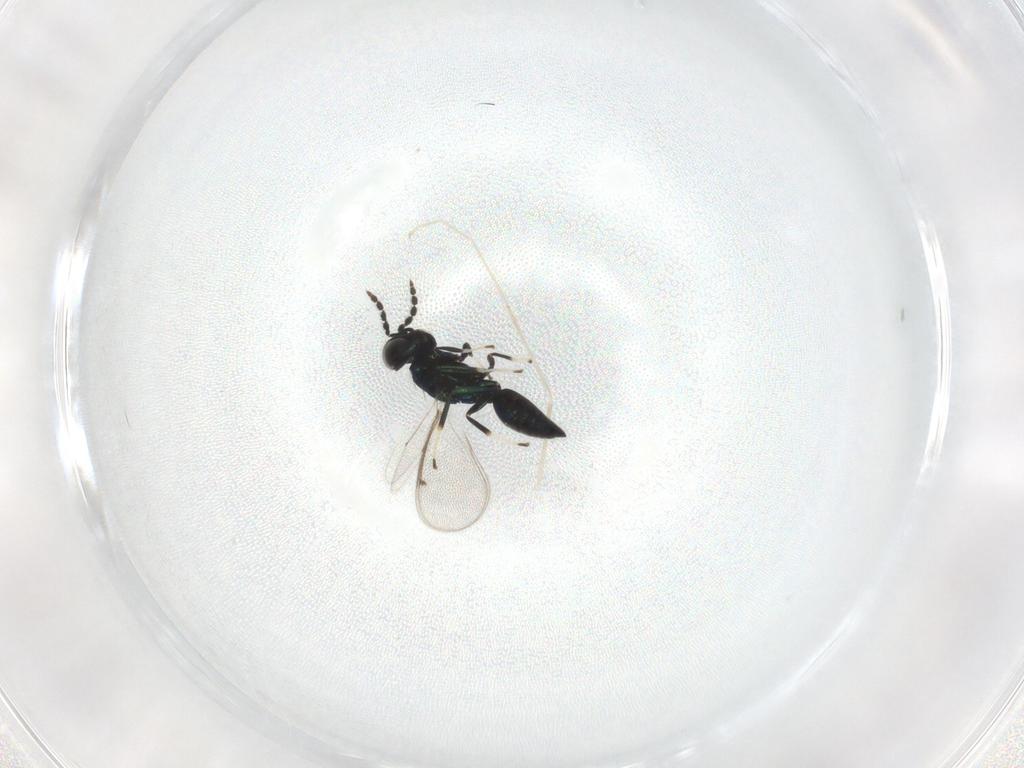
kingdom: Animalia
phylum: Arthropoda
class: Insecta
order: Hymenoptera
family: Eulophidae
